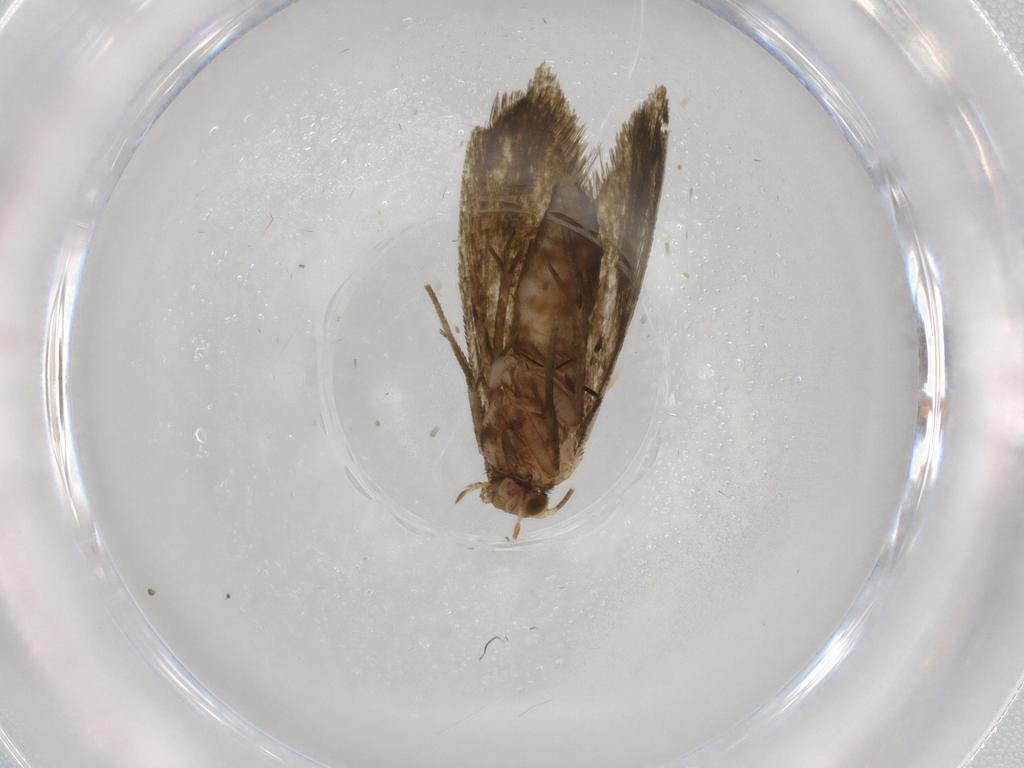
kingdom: Animalia
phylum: Arthropoda
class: Insecta
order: Lepidoptera
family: Tineidae
